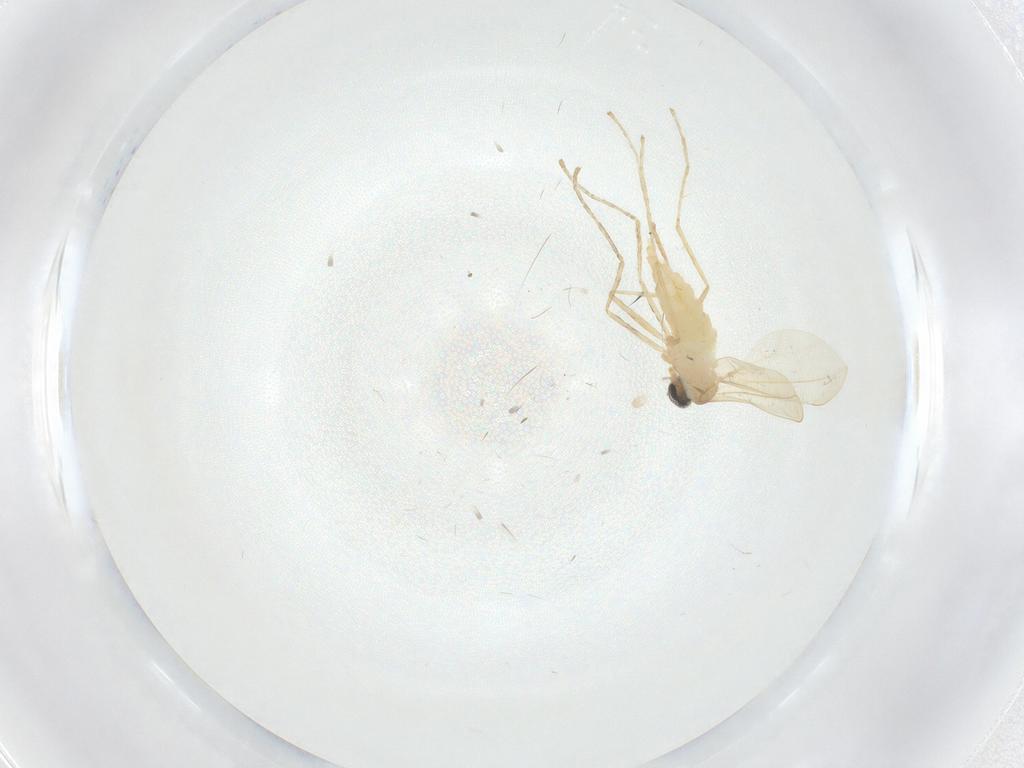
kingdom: Animalia
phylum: Arthropoda
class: Insecta
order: Diptera
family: Cecidomyiidae
